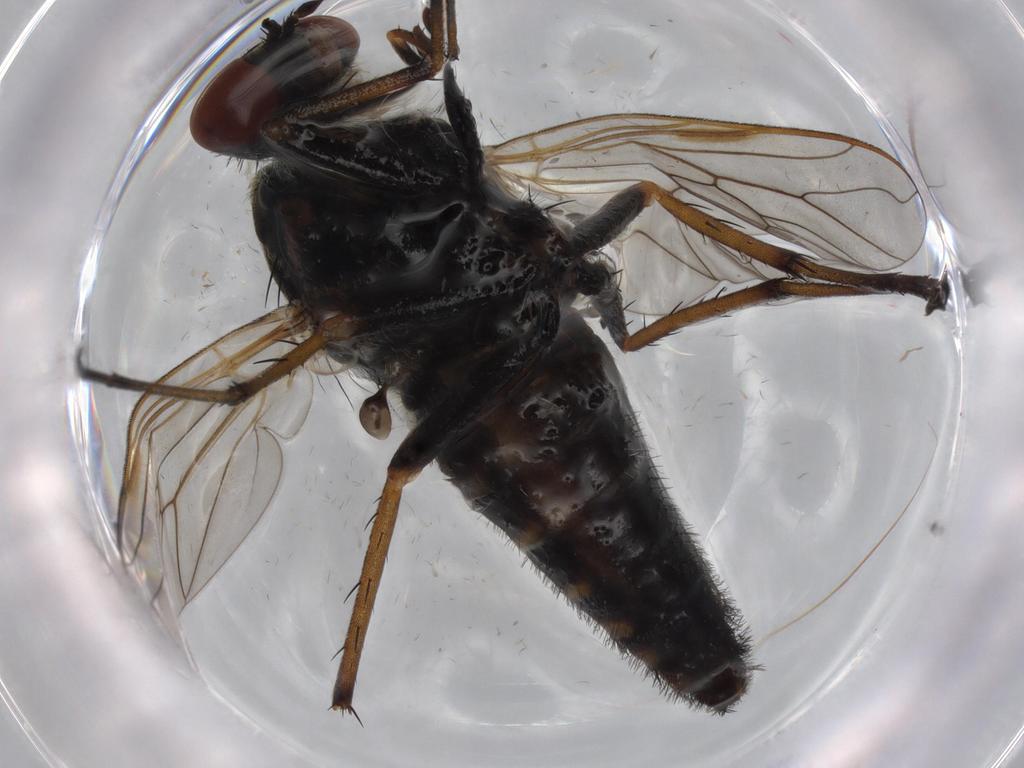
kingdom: Animalia
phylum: Arthropoda
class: Insecta
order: Diptera
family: Therevidae
